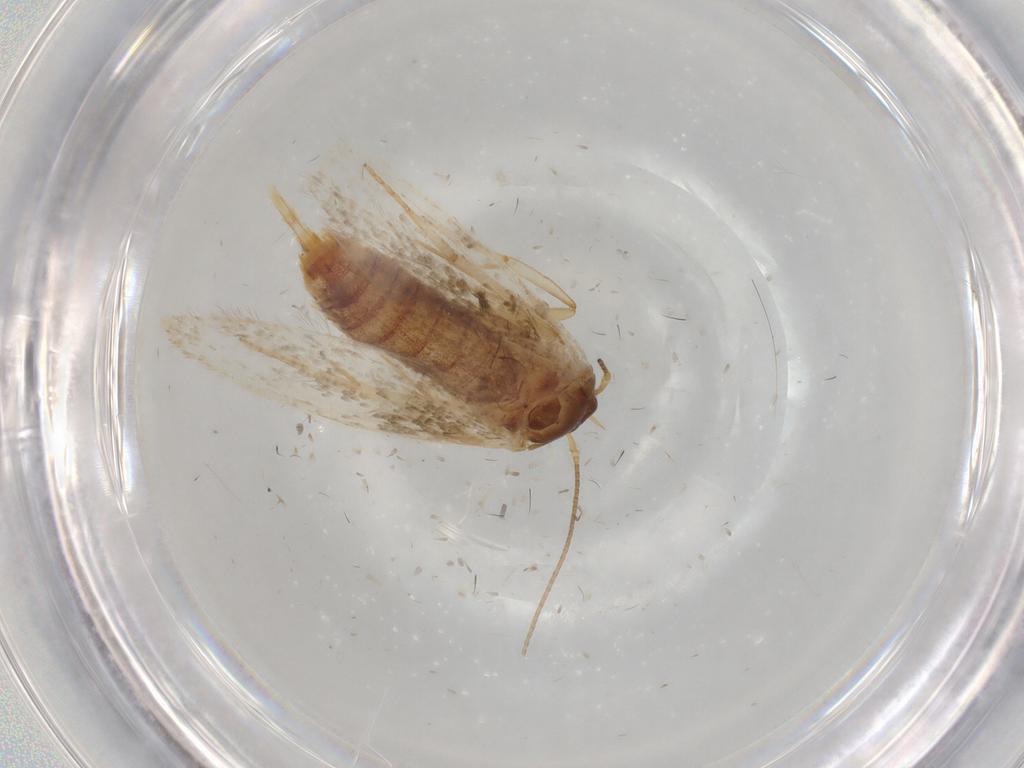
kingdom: Animalia
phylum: Arthropoda
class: Insecta
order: Lepidoptera
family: Blastobasidae
